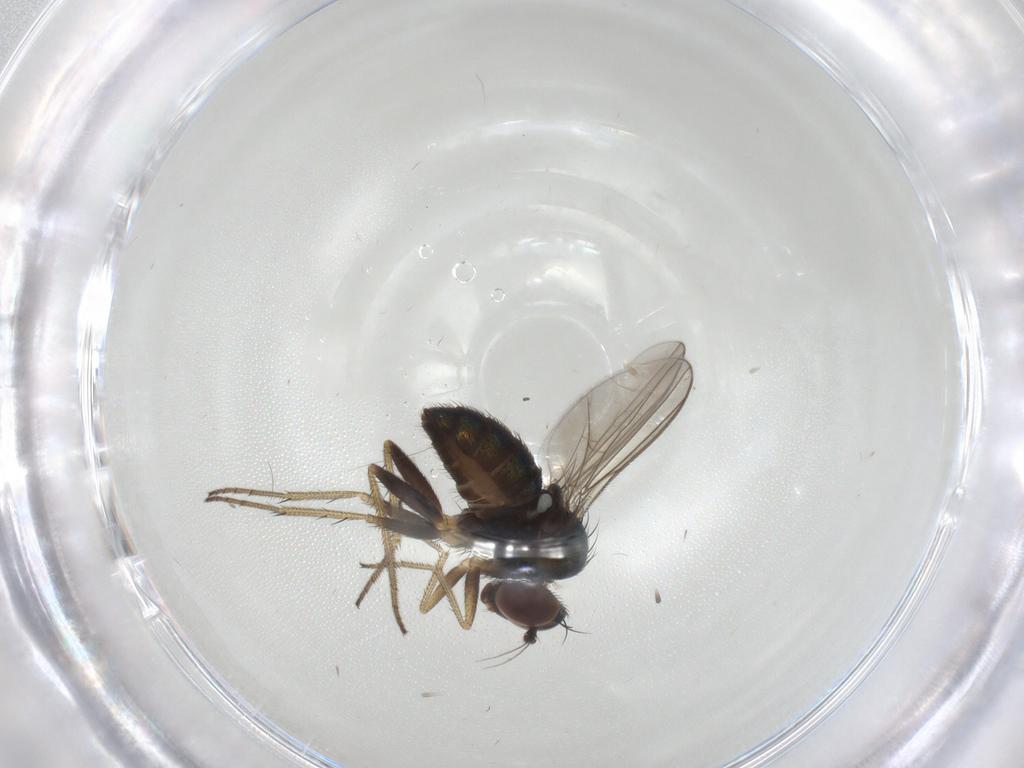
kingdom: Animalia
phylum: Arthropoda
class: Insecta
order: Diptera
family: Dolichopodidae
